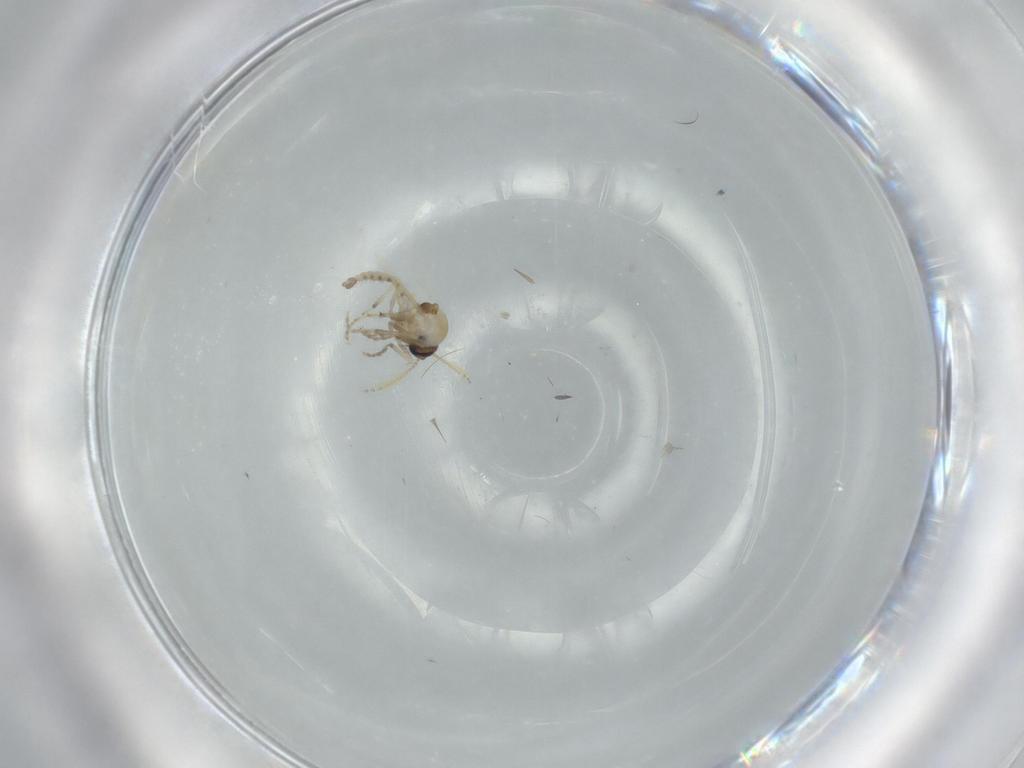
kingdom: Animalia
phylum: Arthropoda
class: Insecta
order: Diptera
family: Ceratopogonidae
